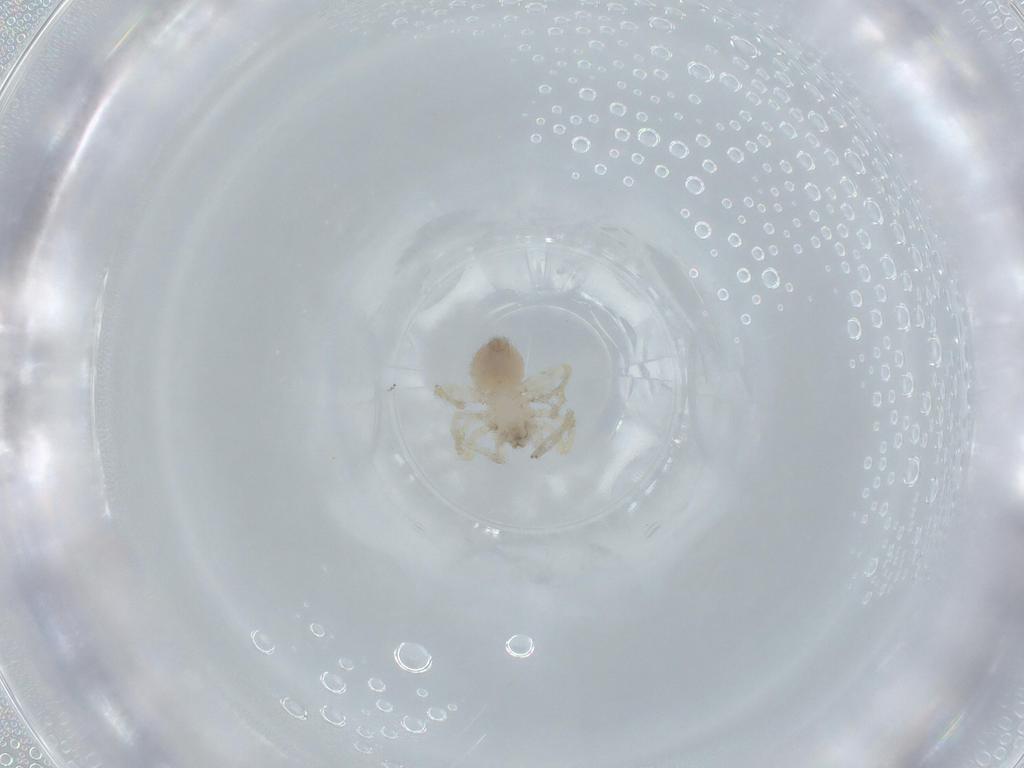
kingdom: Animalia
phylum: Arthropoda
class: Arachnida
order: Araneae
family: Oonopidae
